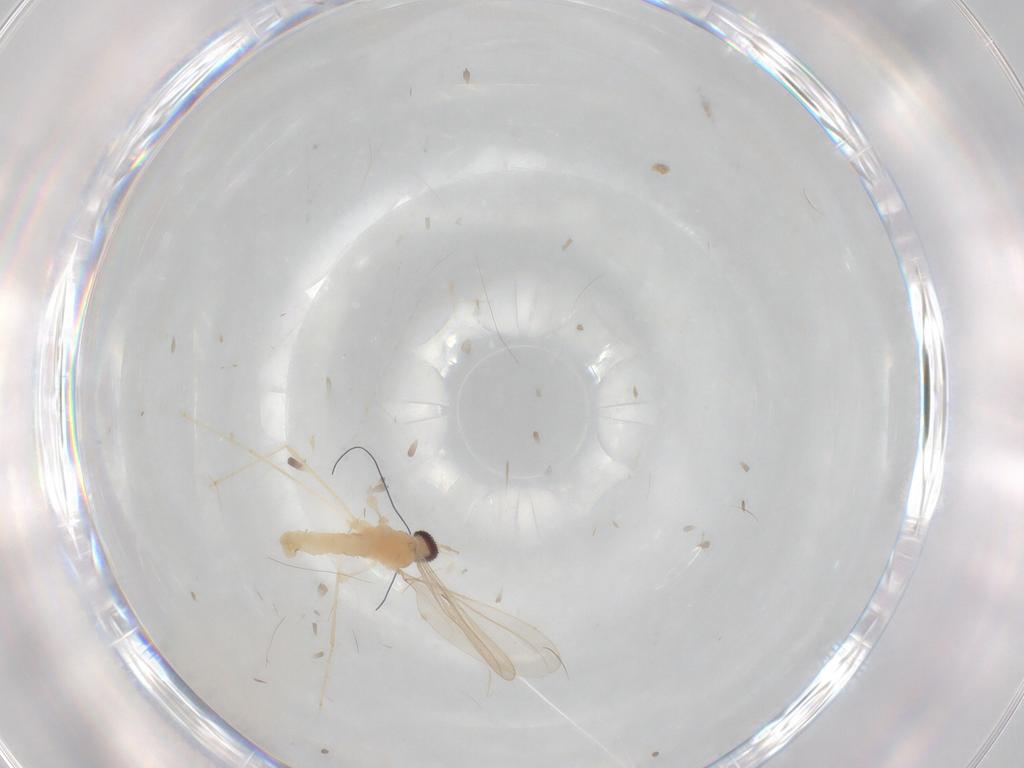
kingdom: Animalia
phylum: Arthropoda
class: Insecta
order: Diptera
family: Cecidomyiidae
